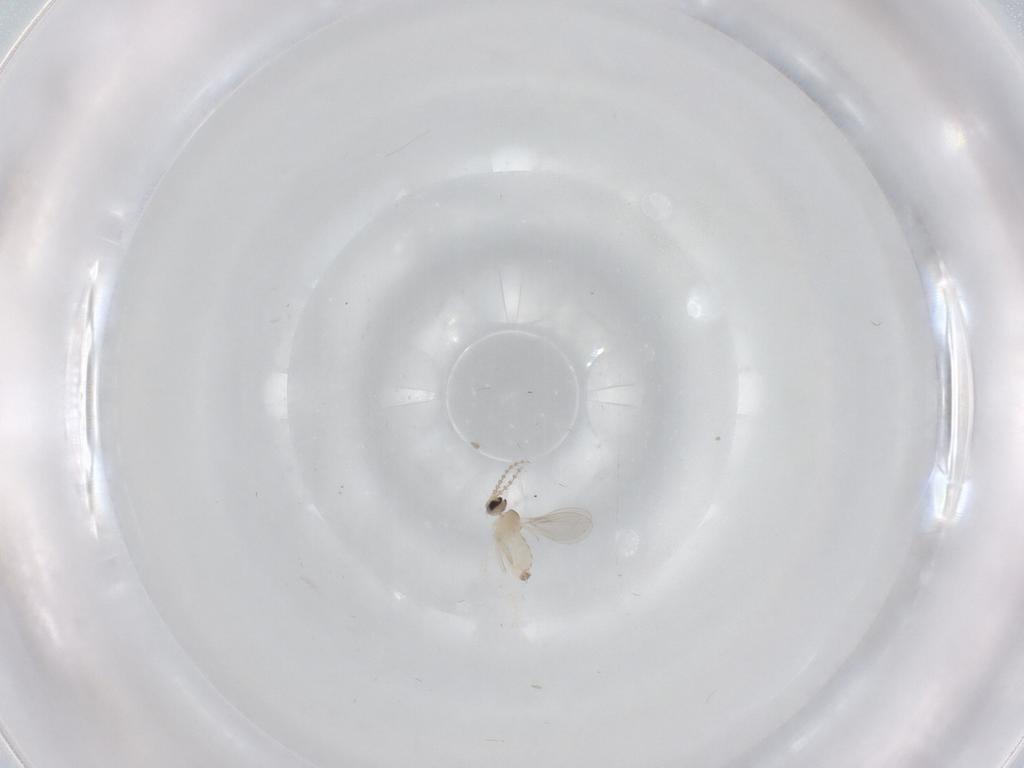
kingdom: Animalia
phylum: Arthropoda
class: Insecta
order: Diptera
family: Cecidomyiidae
